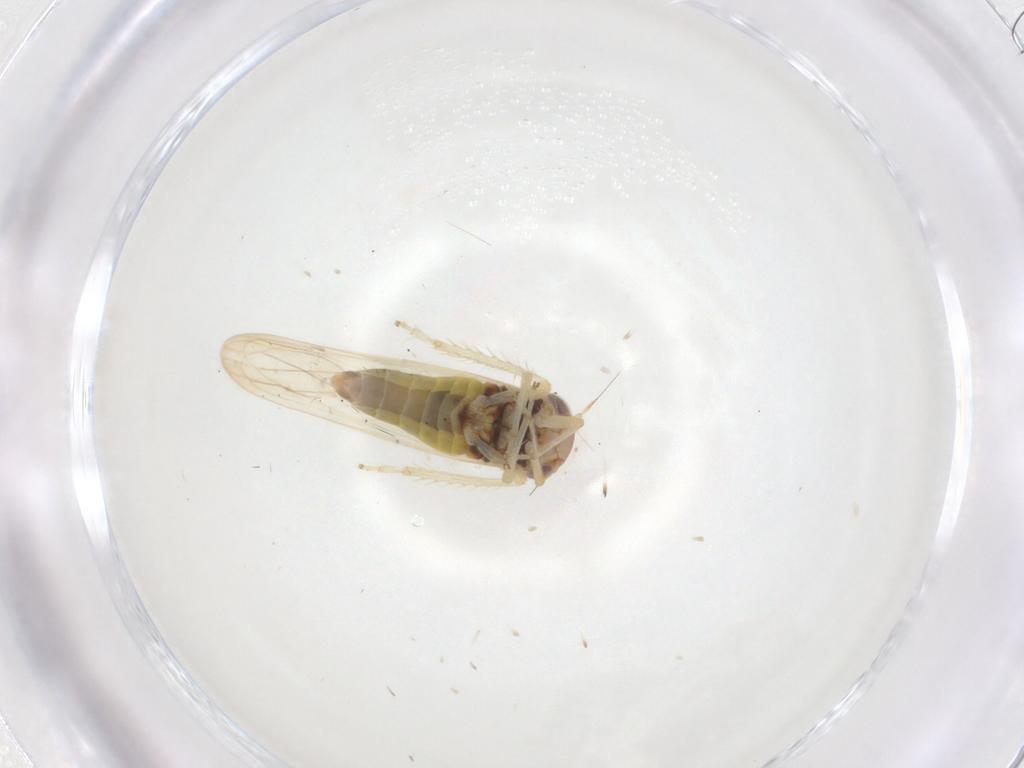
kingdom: Animalia
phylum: Arthropoda
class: Insecta
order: Hemiptera
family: Cicadellidae
